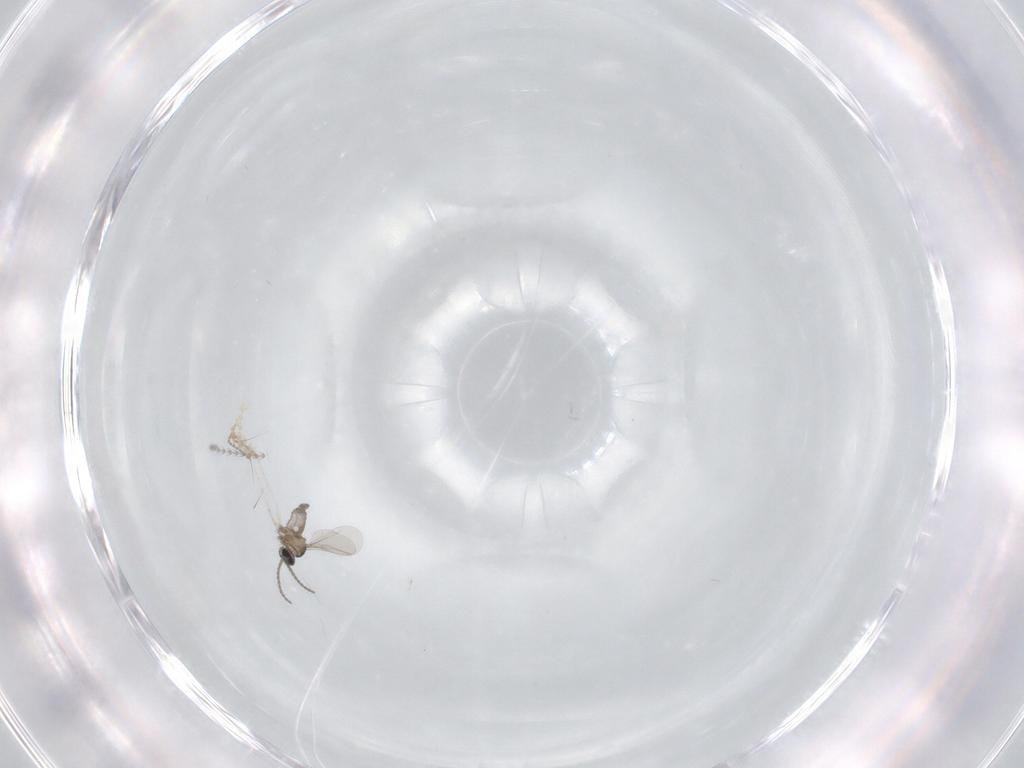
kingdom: Animalia
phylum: Arthropoda
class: Insecta
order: Diptera
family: Cecidomyiidae
